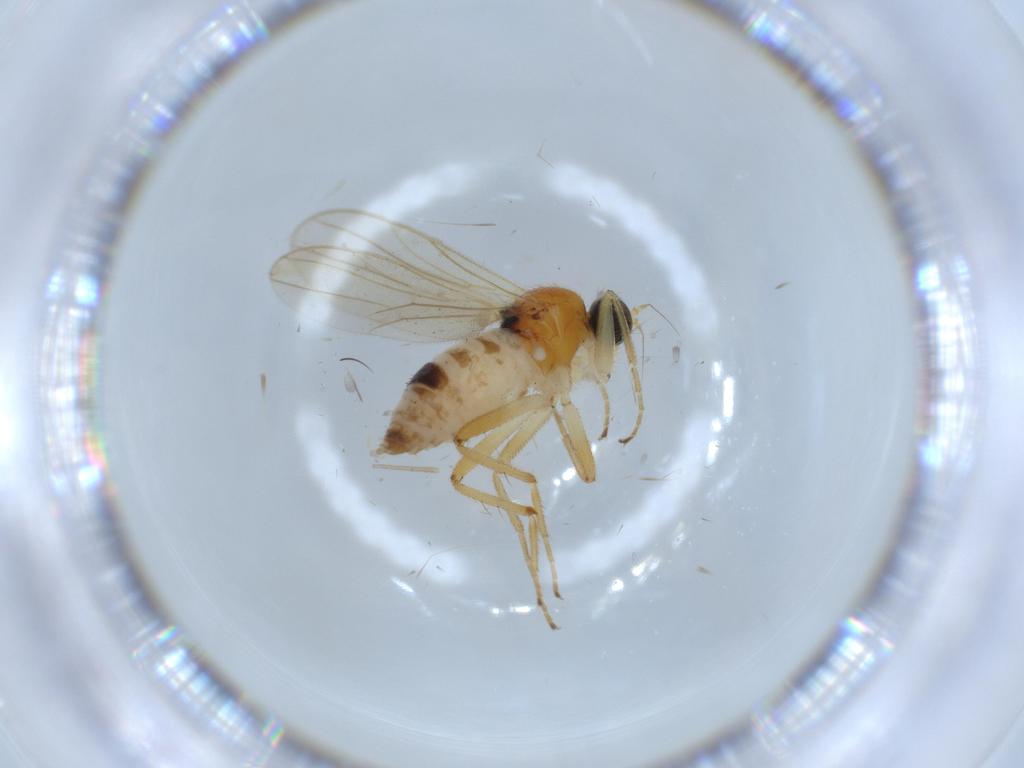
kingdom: Animalia
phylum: Arthropoda
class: Insecta
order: Diptera
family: Hybotidae
